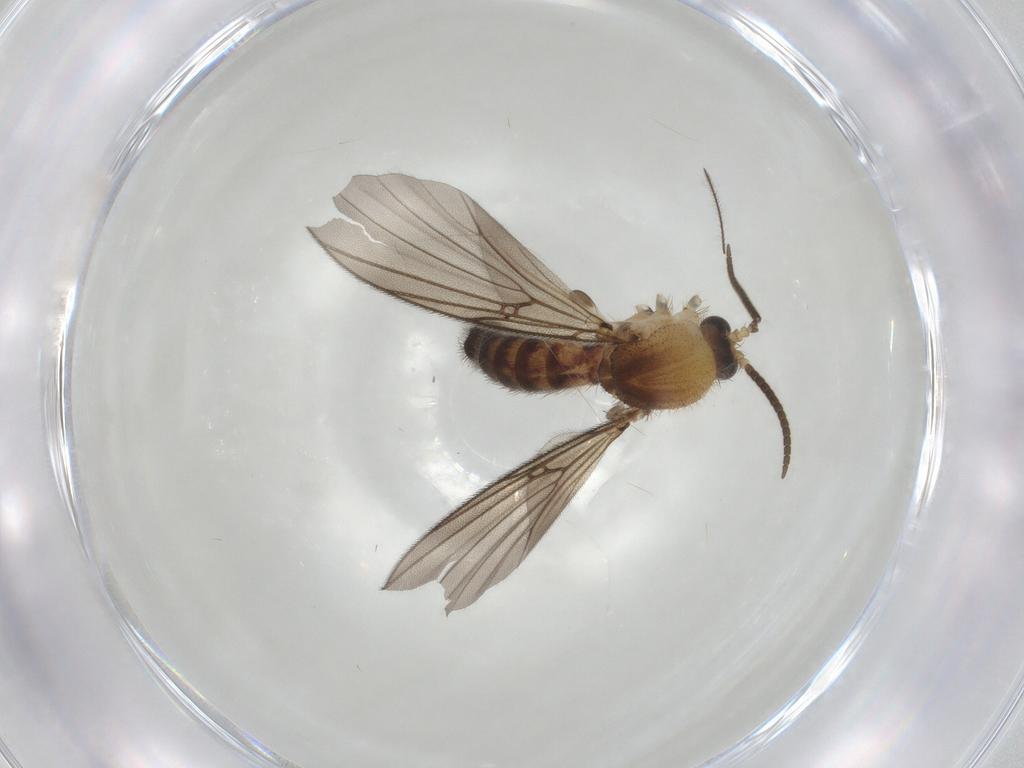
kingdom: Animalia
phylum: Arthropoda
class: Insecta
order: Diptera
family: Mycetophilidae
